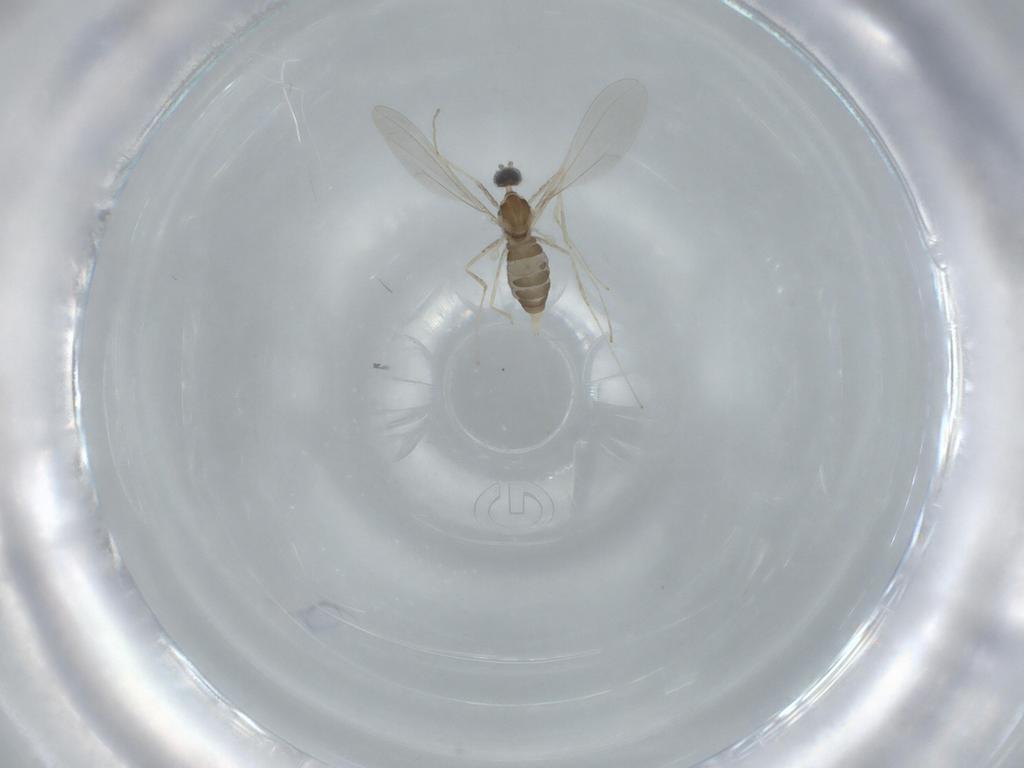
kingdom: Animalia
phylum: Arthropoda
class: Insecta
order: Diptera
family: Cecidomyiidae
